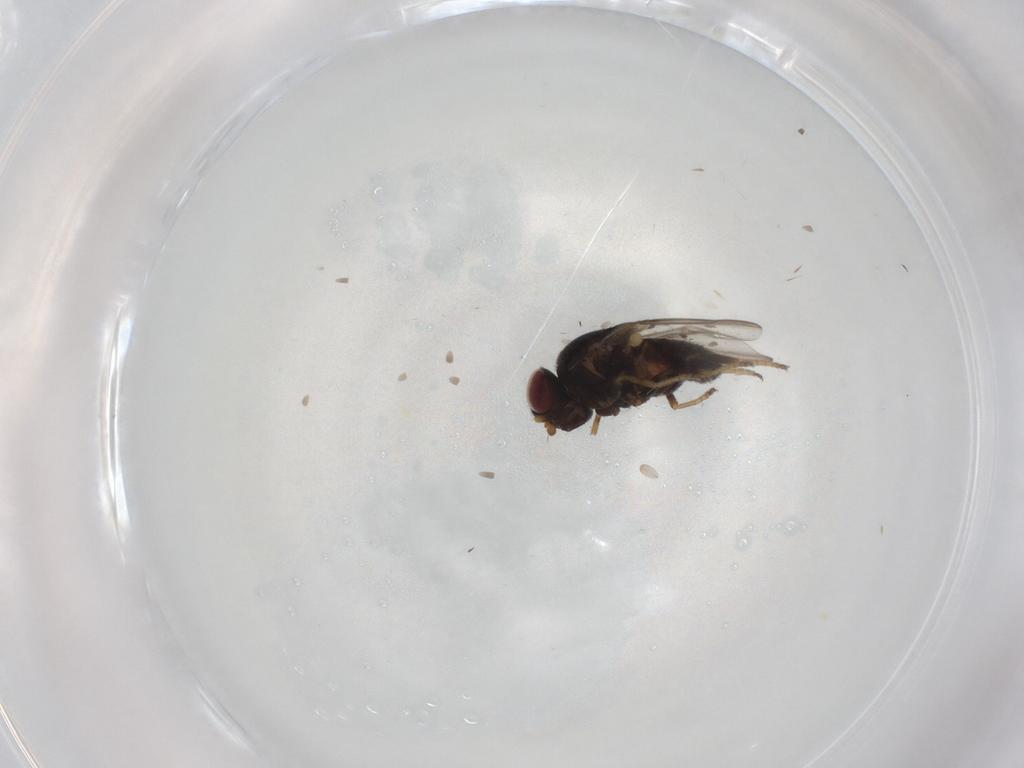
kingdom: Animalia
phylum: Arthropoda
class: Insecta
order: Diptera
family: Chloropidae
